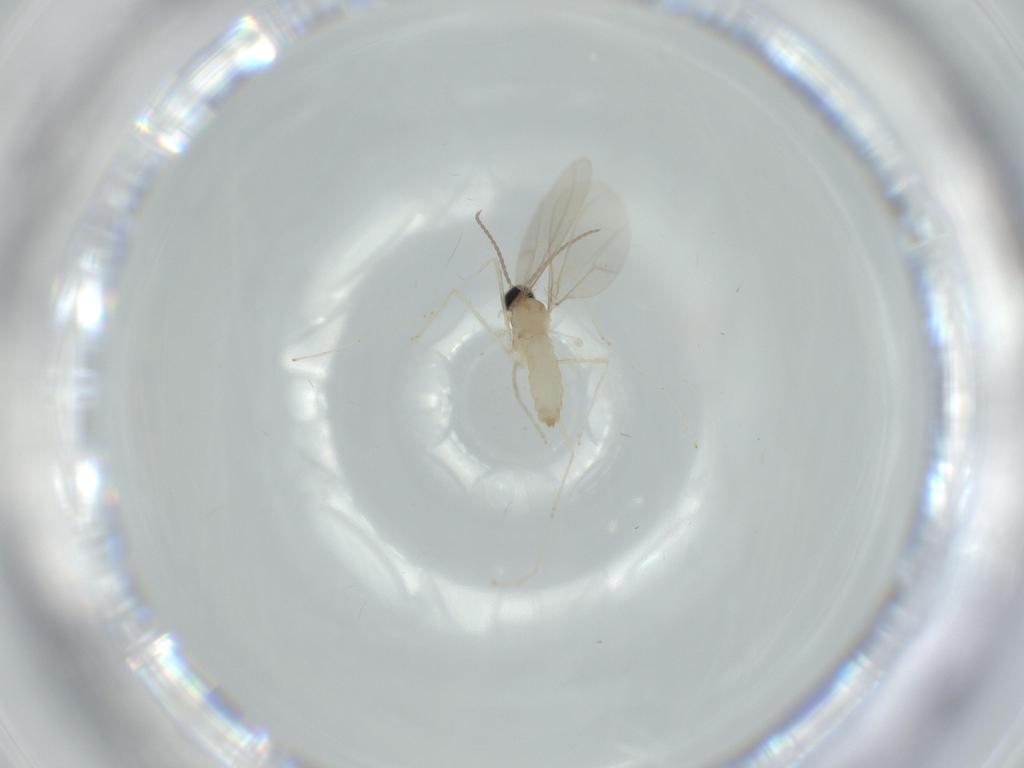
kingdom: Animalia
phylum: Arthropoda
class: Insecta
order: Diptera
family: Cecidomyiidae
